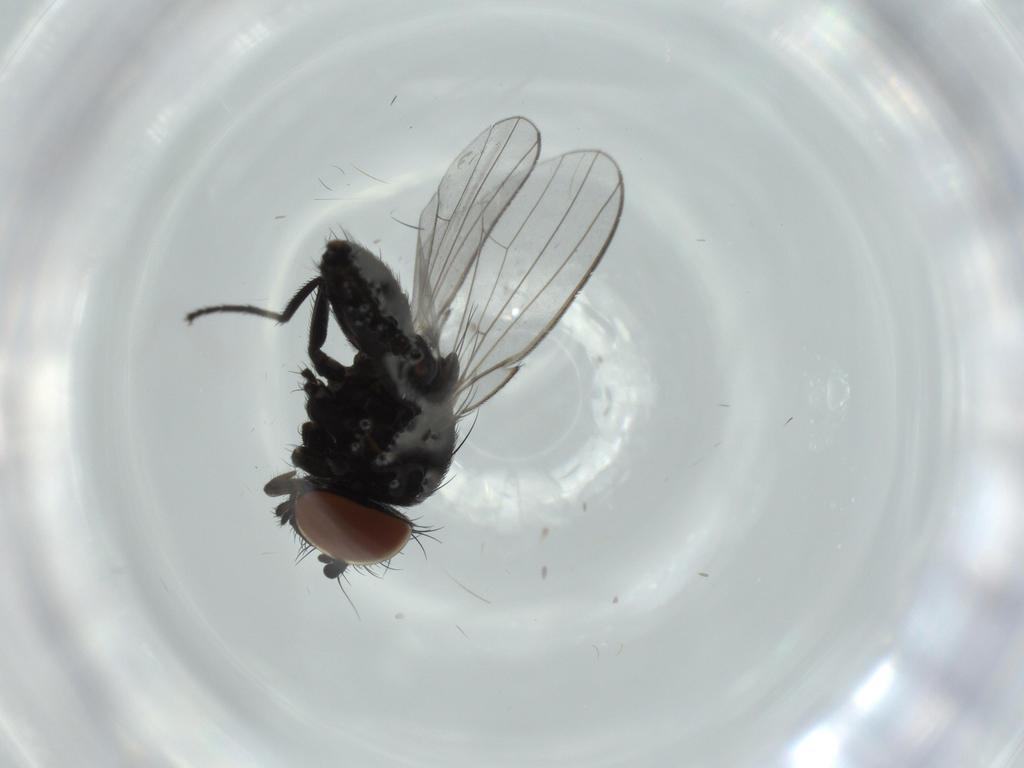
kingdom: Animalia
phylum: Arthropoda
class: Insecta
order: Diptera
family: Milichiidae
